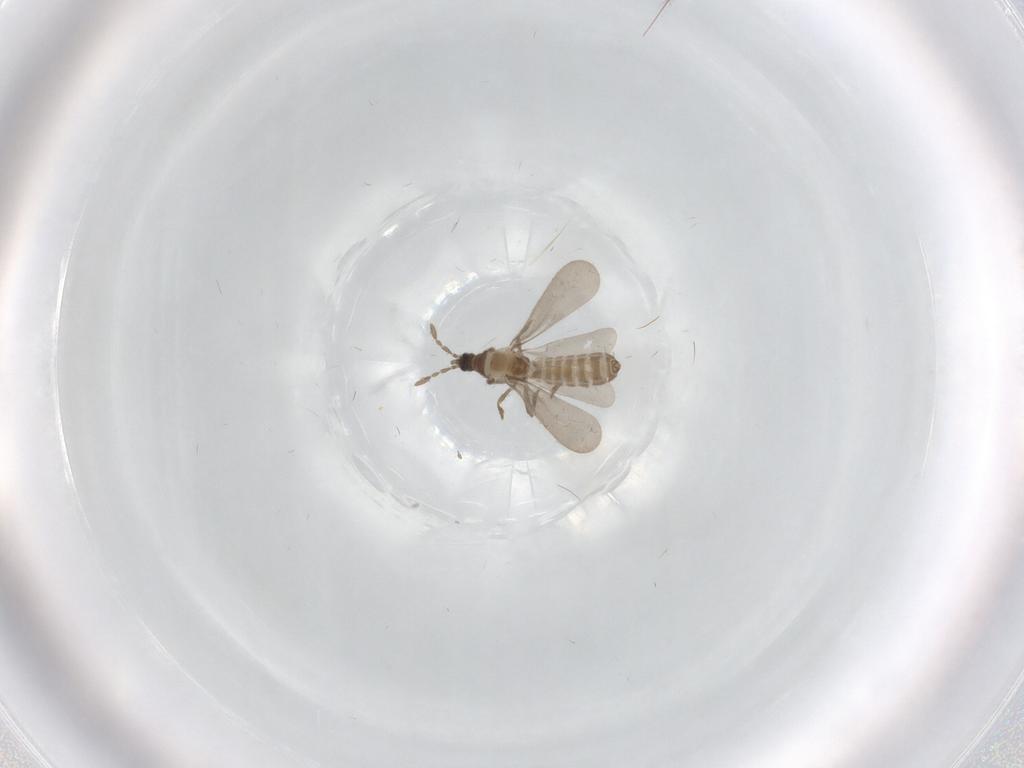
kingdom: Animalia
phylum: Arthropoda
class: Insecta
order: Hemiptera
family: Enicocephalidae
